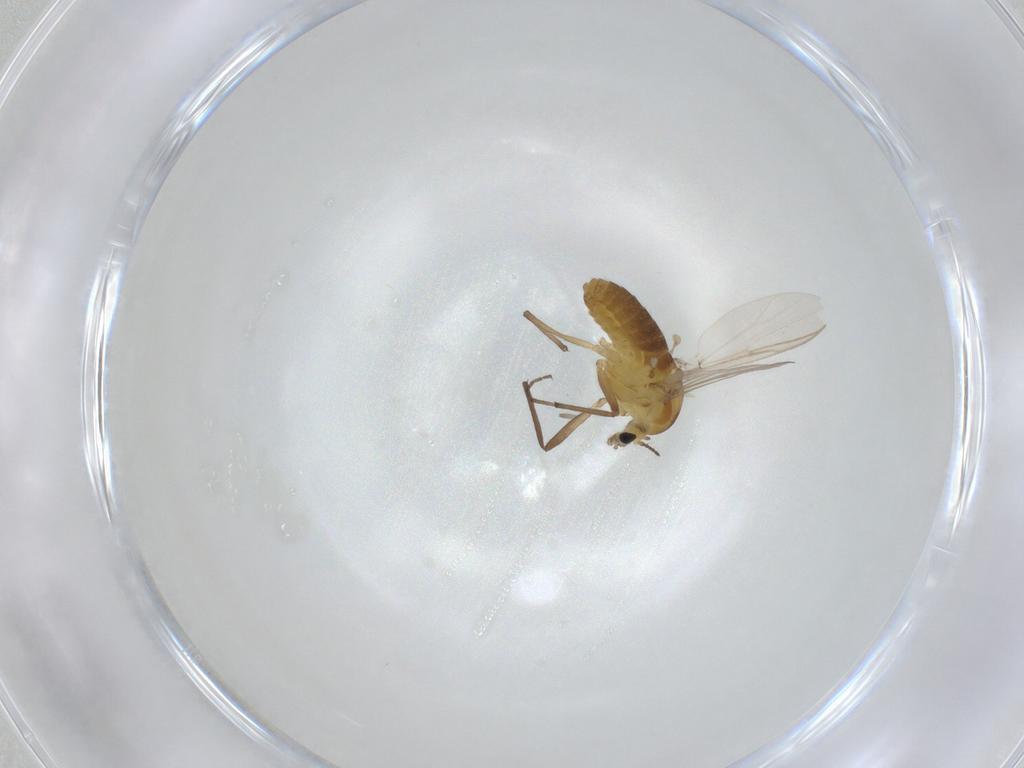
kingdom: Animalia
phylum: Arthropoda
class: Insecta
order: Diptera
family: Chironomidae
